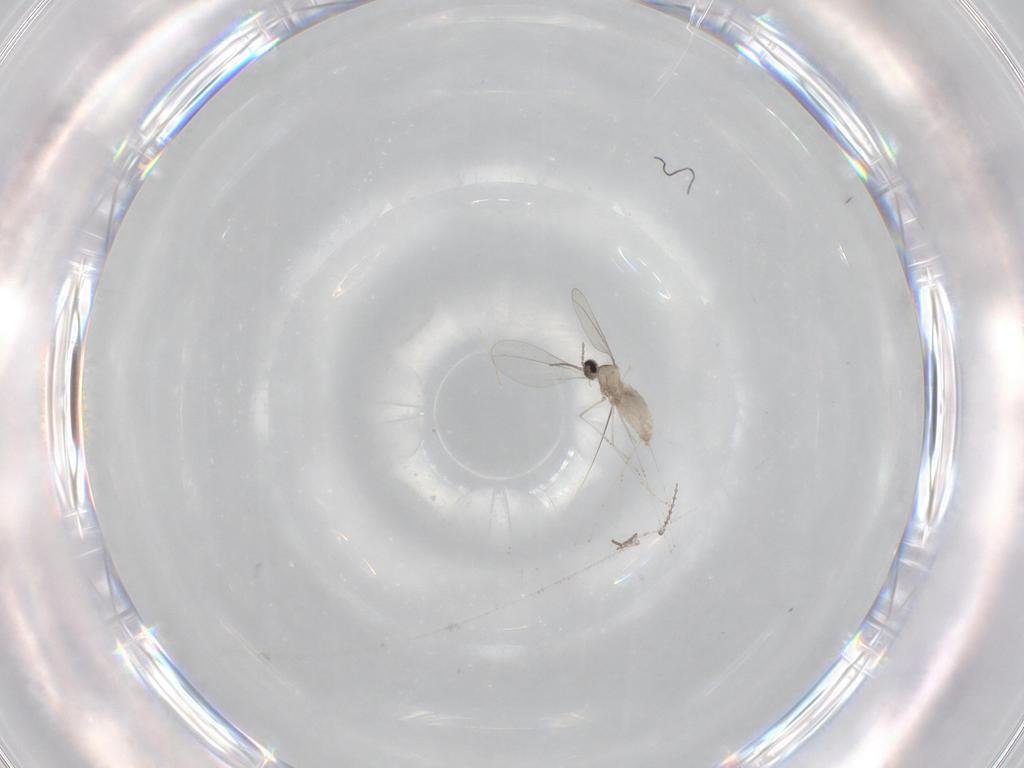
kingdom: Animalia
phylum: Arthropoda
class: Insecta
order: Diptera
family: Cecidomyiidae
